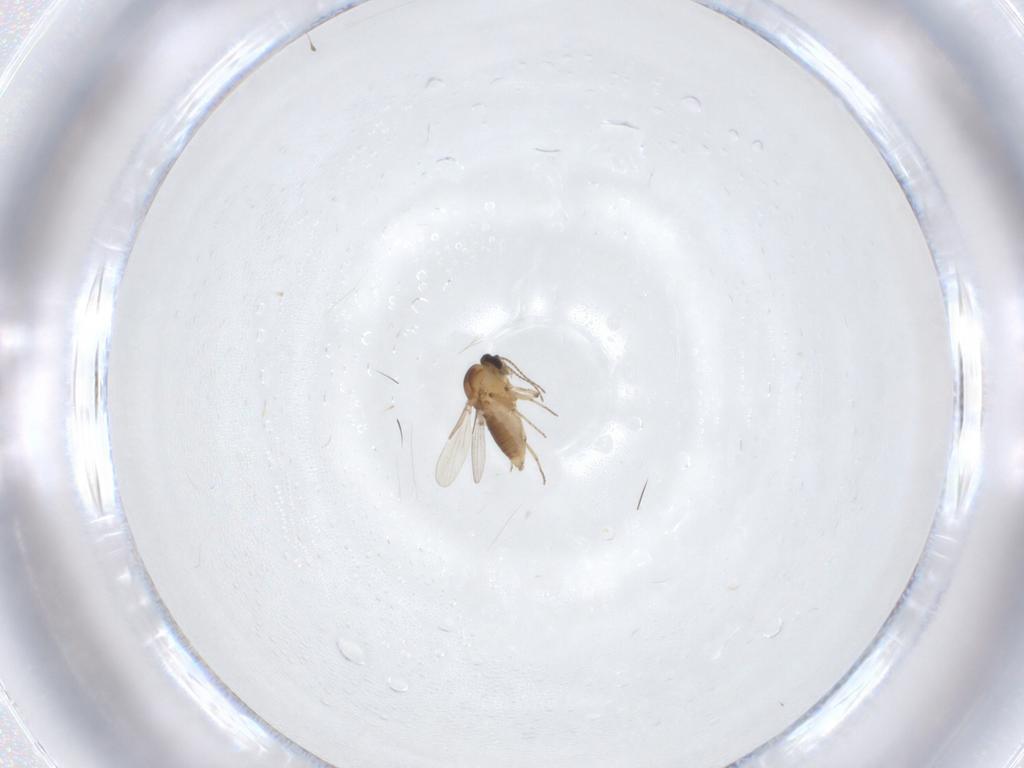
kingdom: Animalia
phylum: Arthropoda
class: Insecta
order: Diptera
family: Ceratopogonidae
